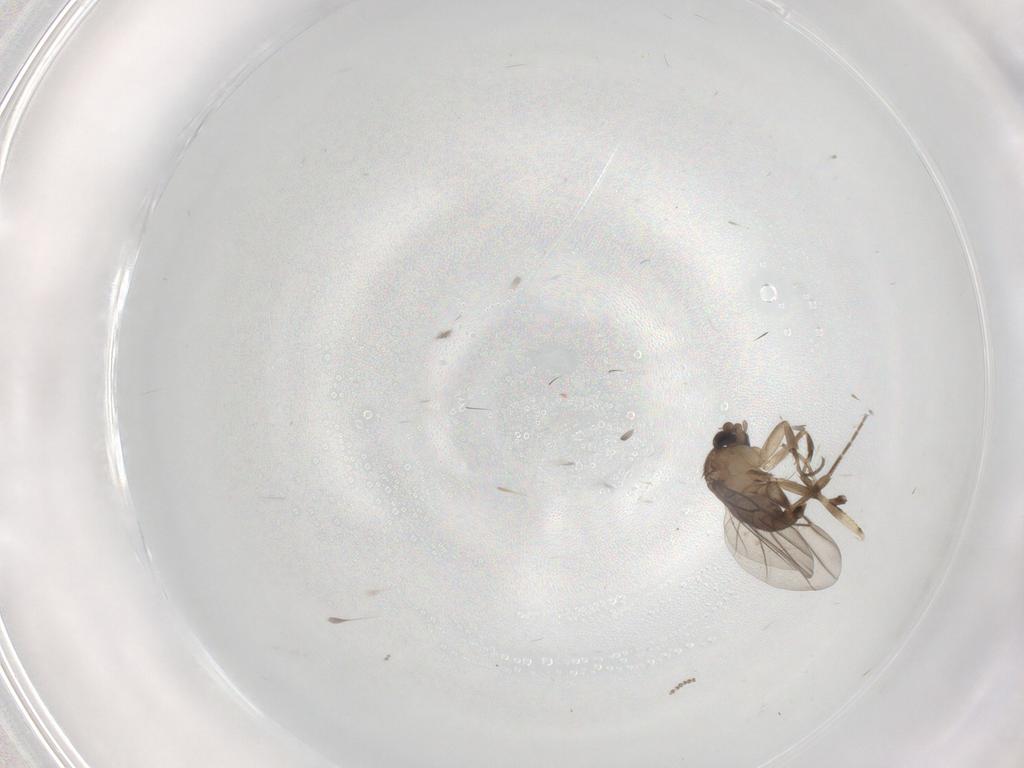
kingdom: Animalia
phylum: Arthropoda
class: Insecta
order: Diptera
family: Phoridae
